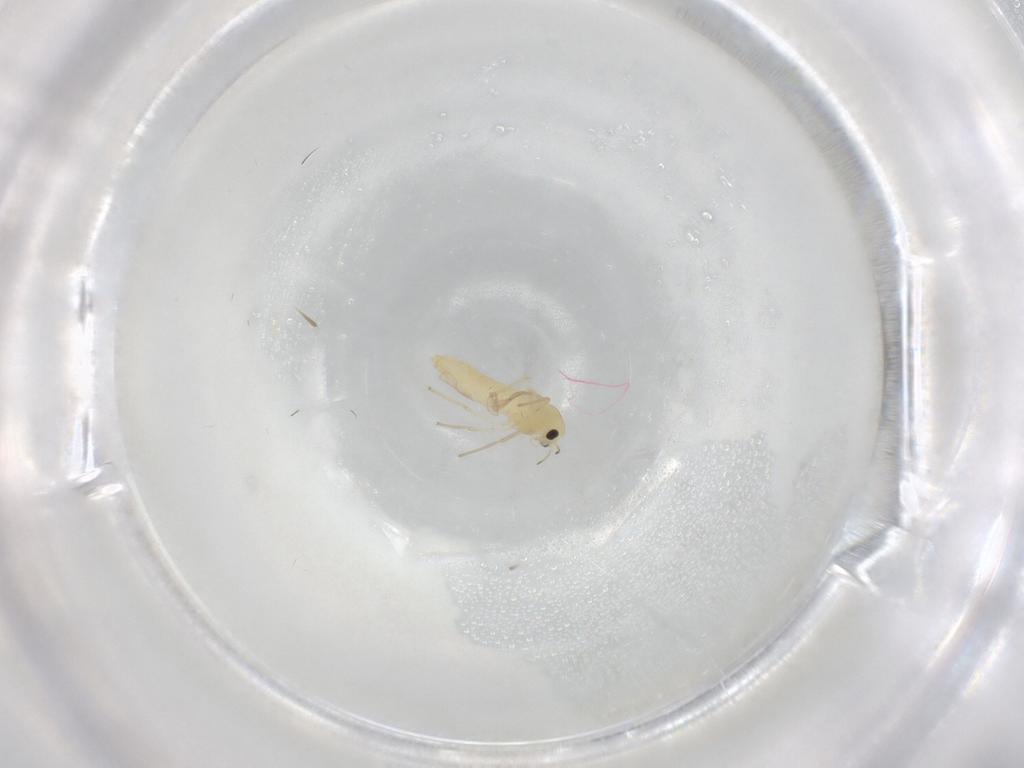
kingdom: Animalia
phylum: Arthropoda
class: Insecta
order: Diptera
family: Chironomidae
